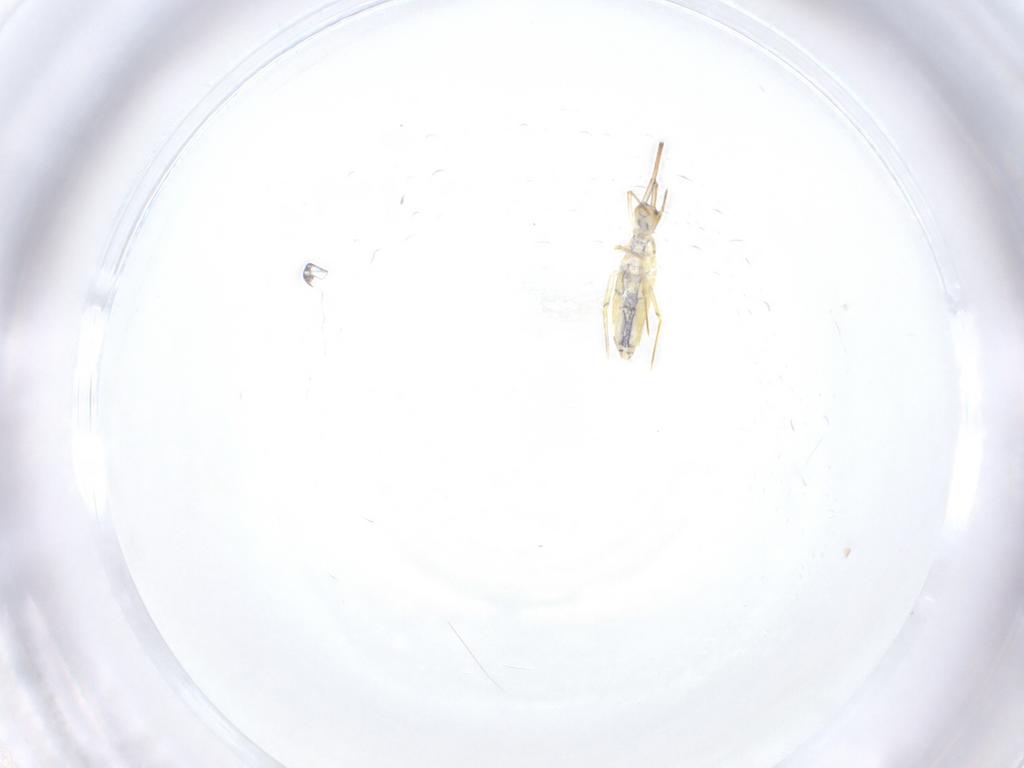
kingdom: Animalia
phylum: Arthropoda
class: Collembola
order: Entomobryomorpha
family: Entomobryidae
